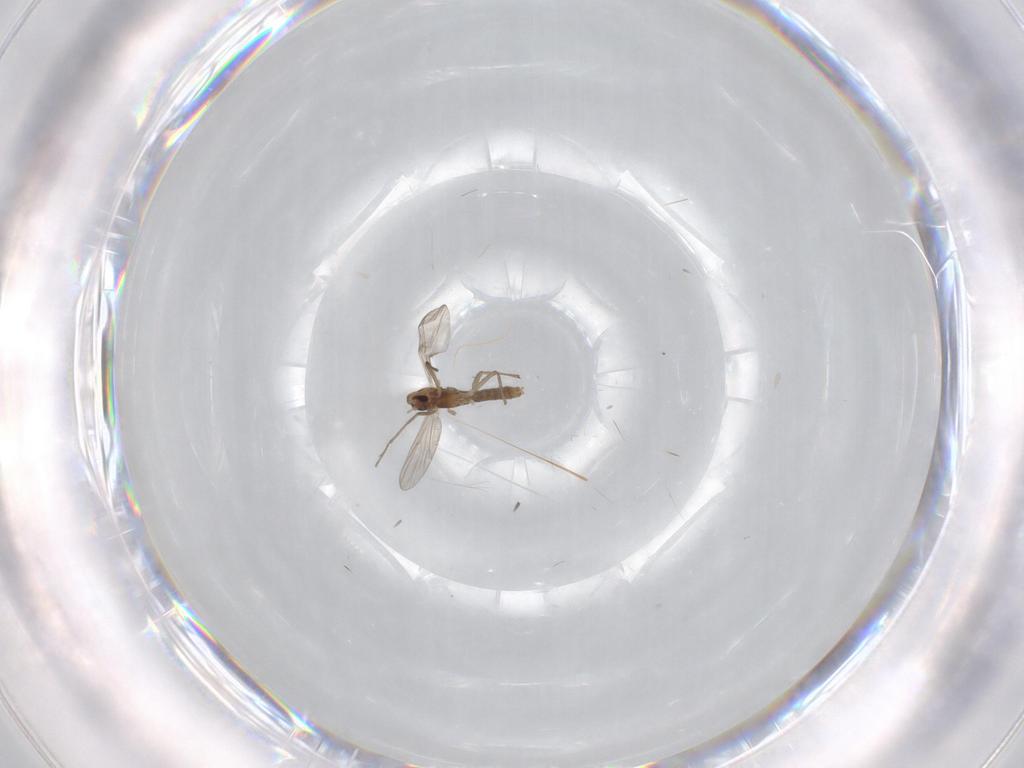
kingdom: Animalia
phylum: Arthropoda
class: Insecta
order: Diptera
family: Chironomidae
